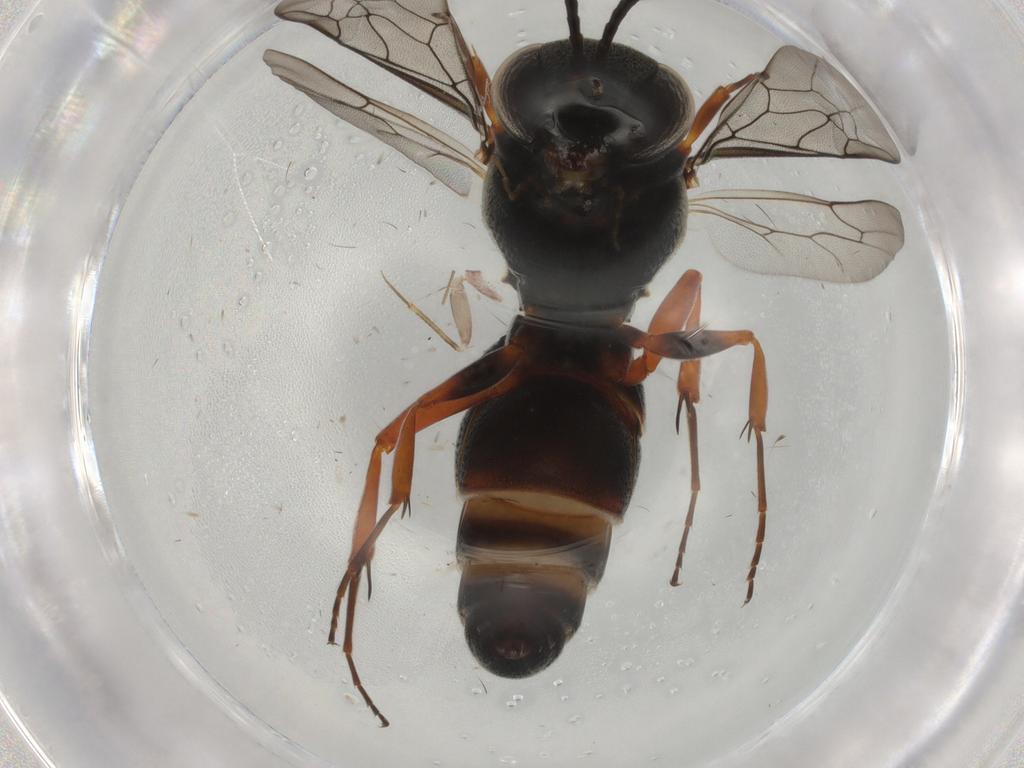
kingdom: Animalia
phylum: Arthropoda
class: Insecta
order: Hymenoptera
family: Bembicidae
